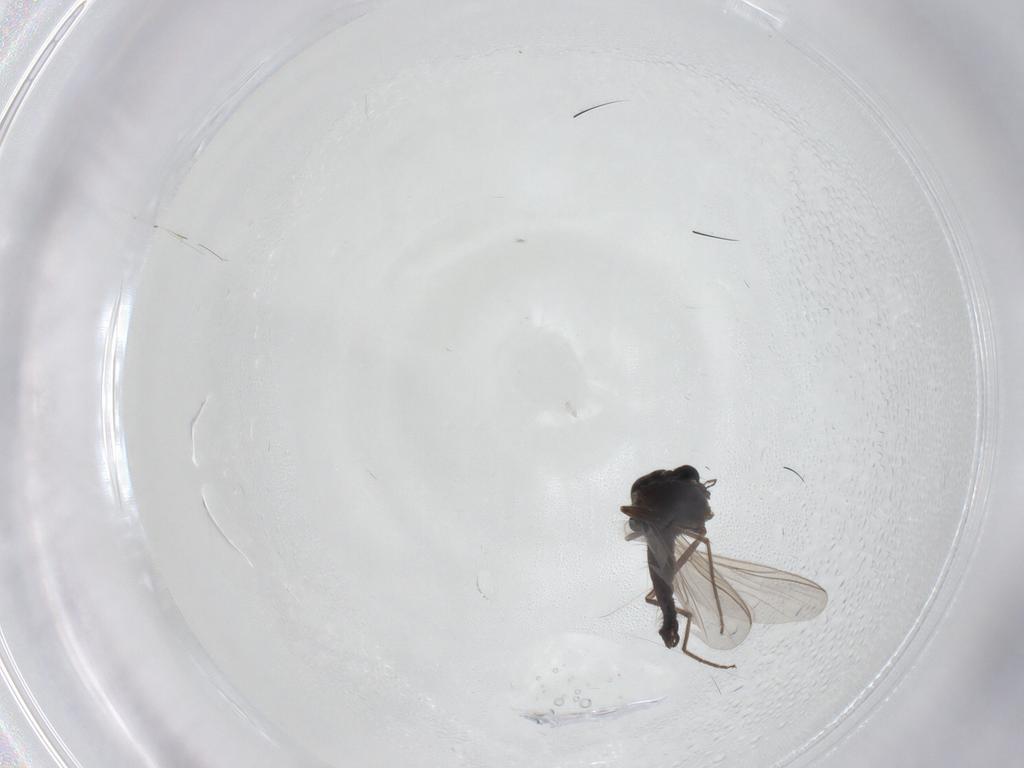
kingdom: Animalia
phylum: Arthropoda
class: Insecta
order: Diptera
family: Chironomidae
